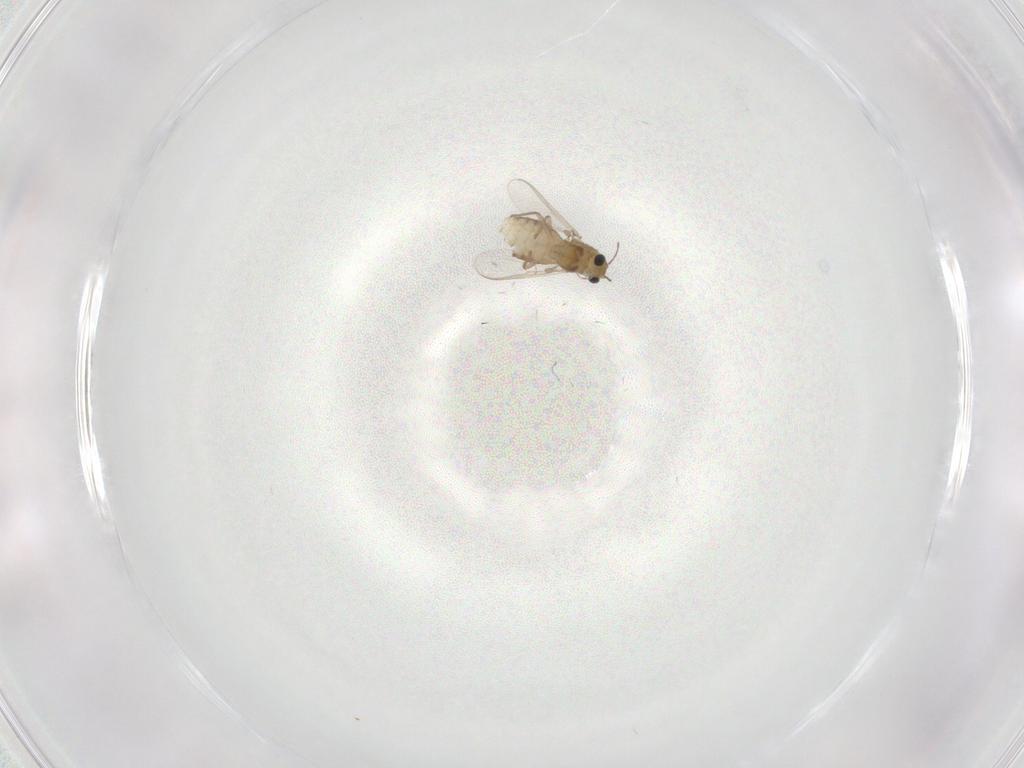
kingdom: Animalia
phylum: Arthropoda
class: Insecta
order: Diptera
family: Chironomidae
